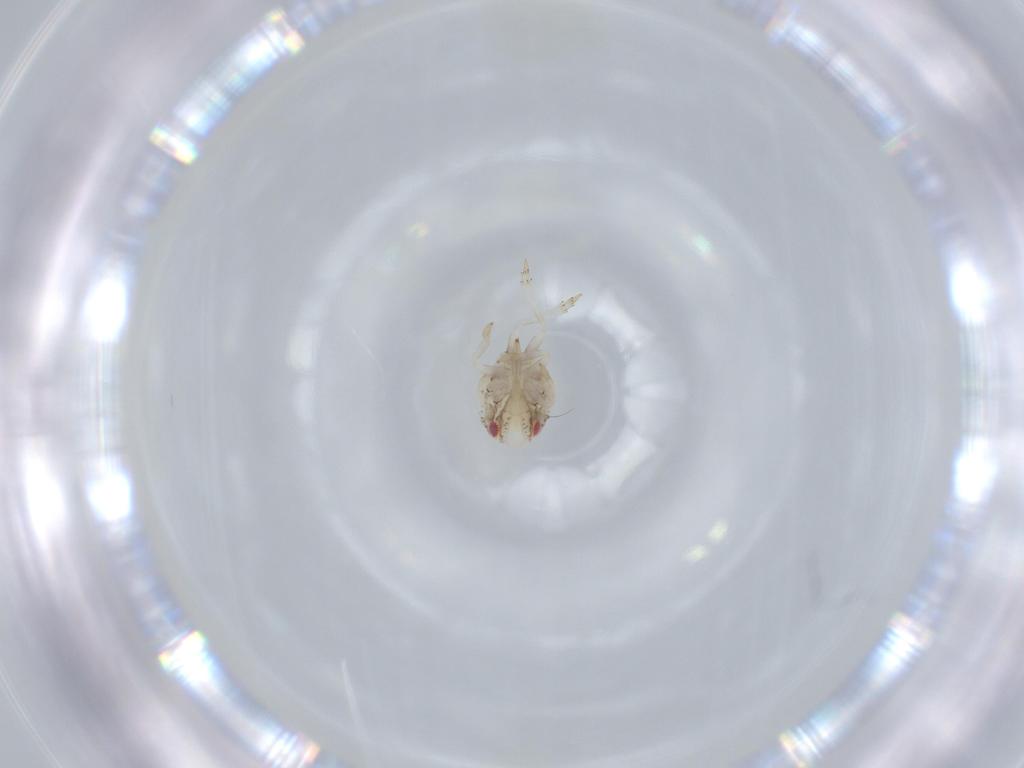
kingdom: Animalia
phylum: Arthropoda
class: Insecta
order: Hemiptera
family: Acanaloniidae
